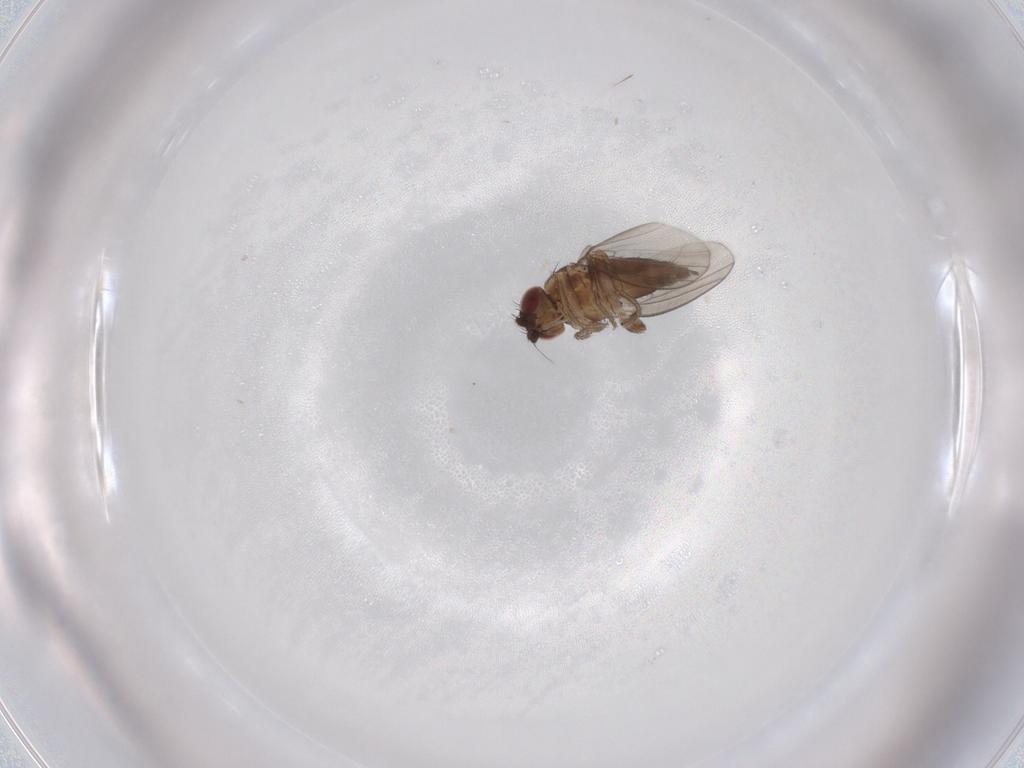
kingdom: Animalia
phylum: Arthropoda
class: Insecta
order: Diptera
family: Milichiidae
